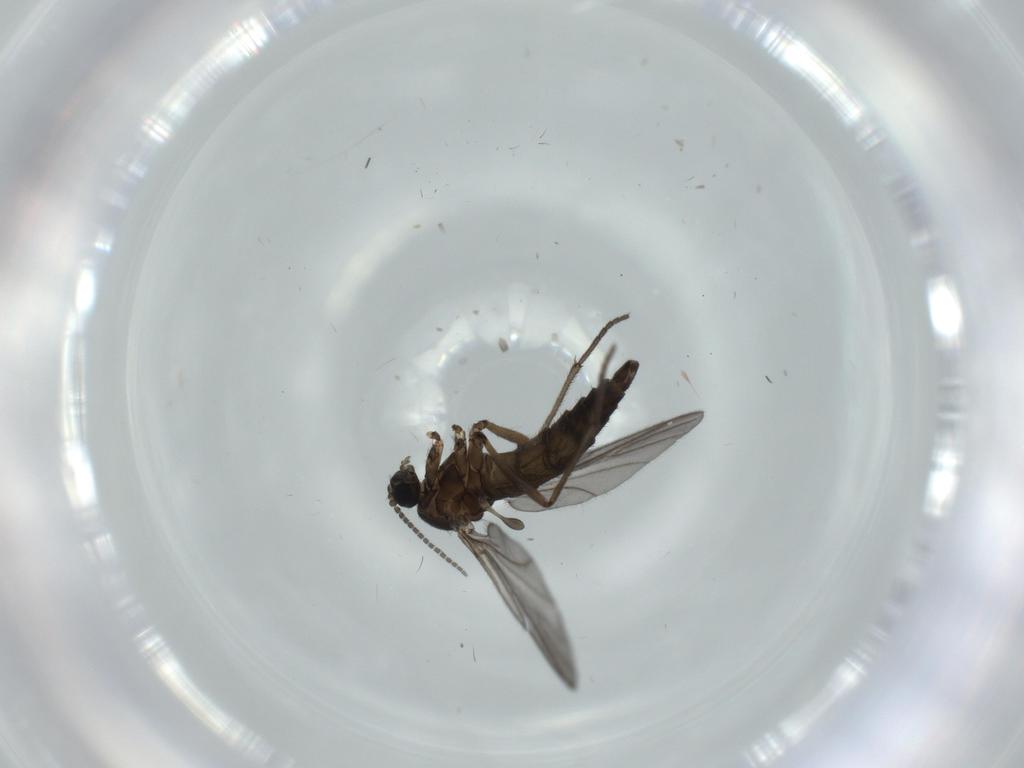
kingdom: Animalia
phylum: Arthropoda
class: Insecta
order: Diptera
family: Sciaridae
